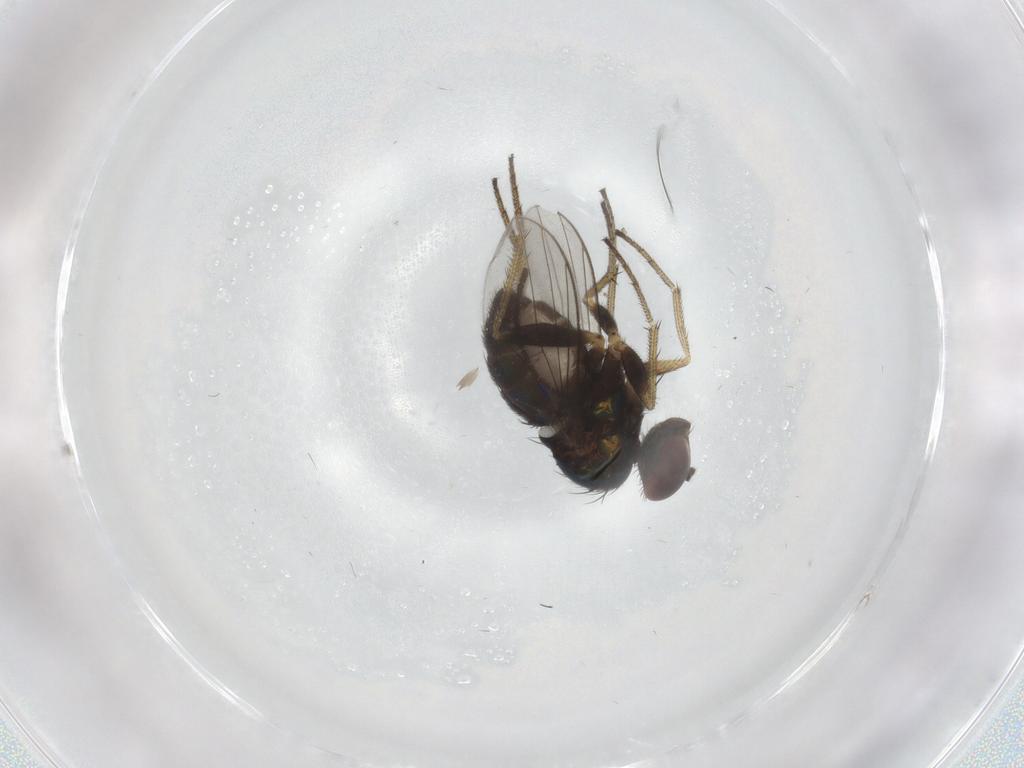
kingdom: Animalia
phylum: Arthropoda
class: Insecta
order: Diptera
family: Sciaridae
